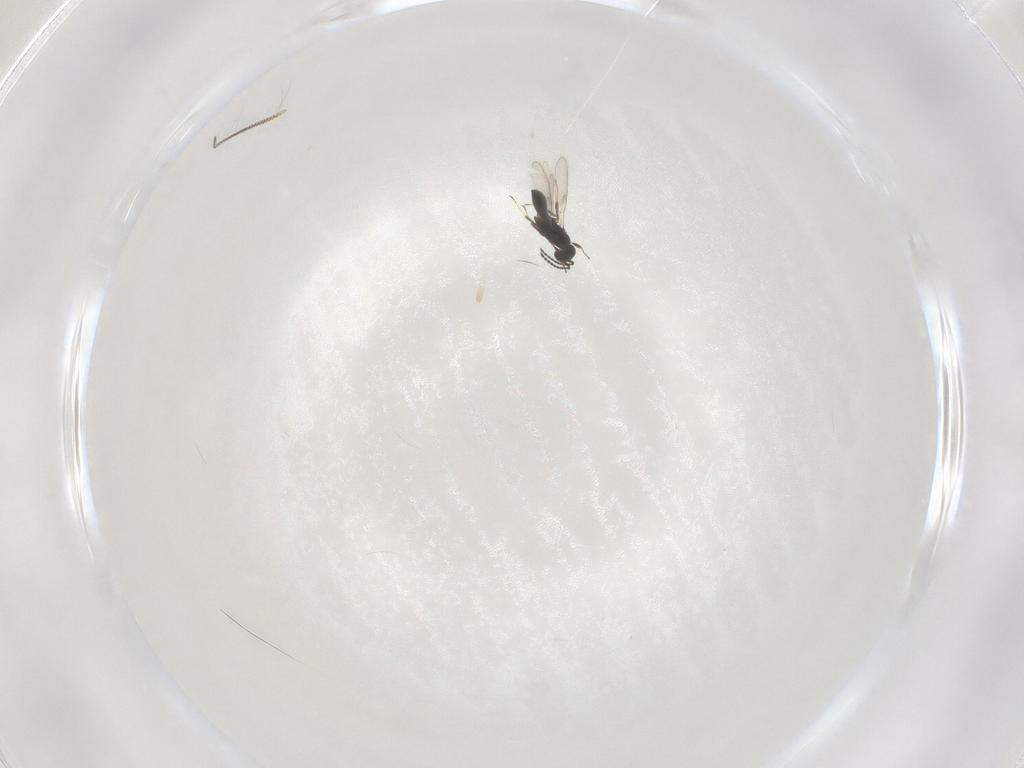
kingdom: Animalia
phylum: Arthropoda
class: Insecta
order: Hymenoptera
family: Scelionidae
